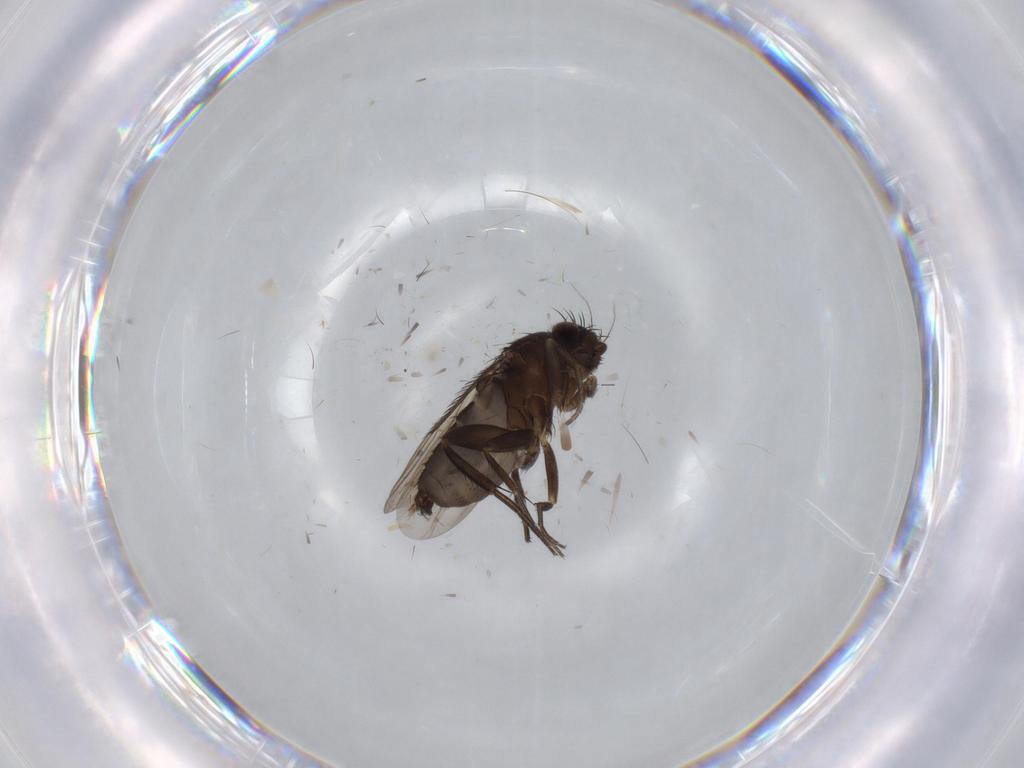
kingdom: Animalia
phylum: Arthropoda
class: Insecta
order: Diptera
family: Phoridae
